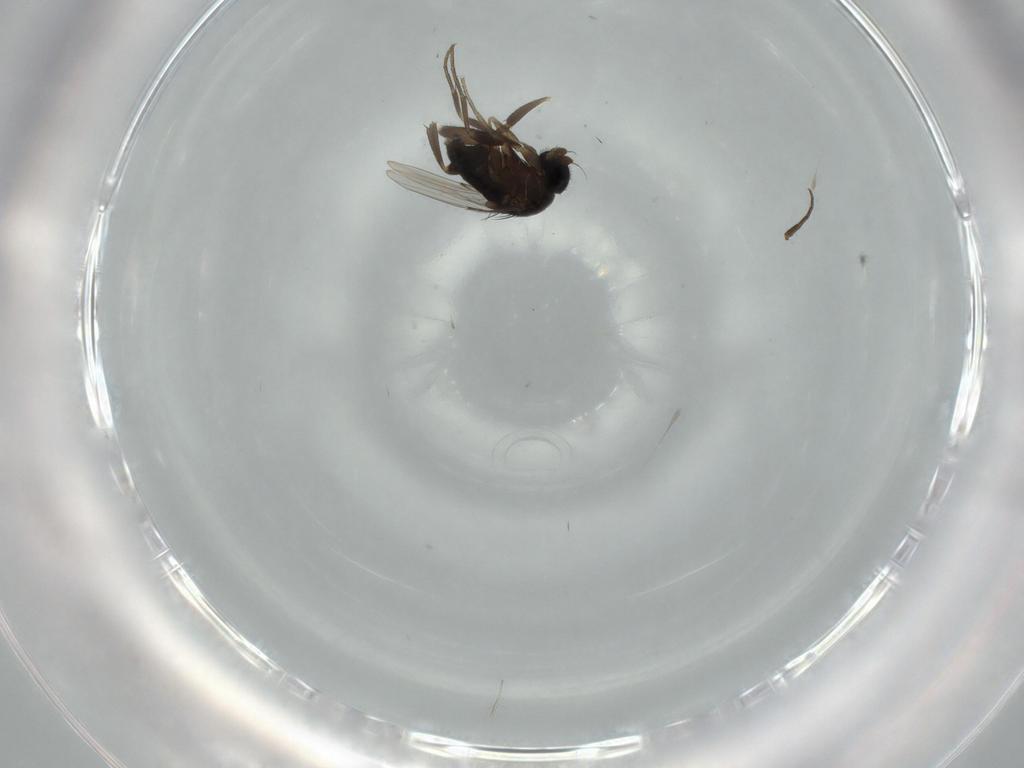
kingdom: Animalia
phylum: Arthropoda
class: Insecta
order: Diptera
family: Phoridae
